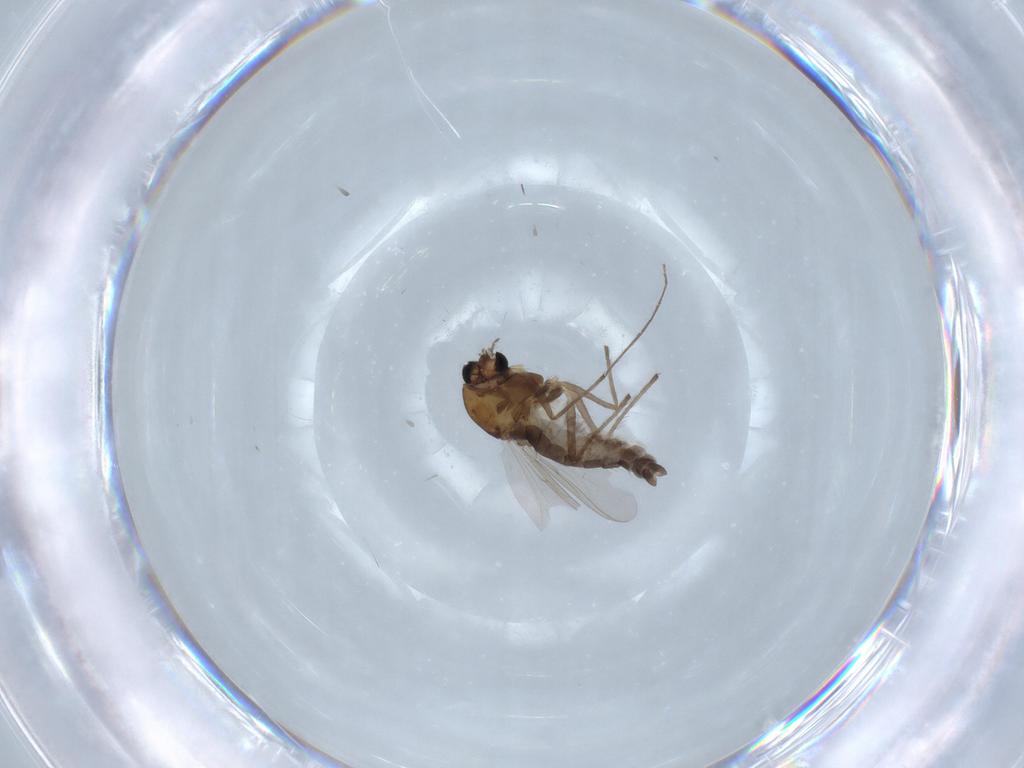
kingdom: Animalia
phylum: Arthropoda
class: Insecta
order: Diptera
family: Chironomidae
